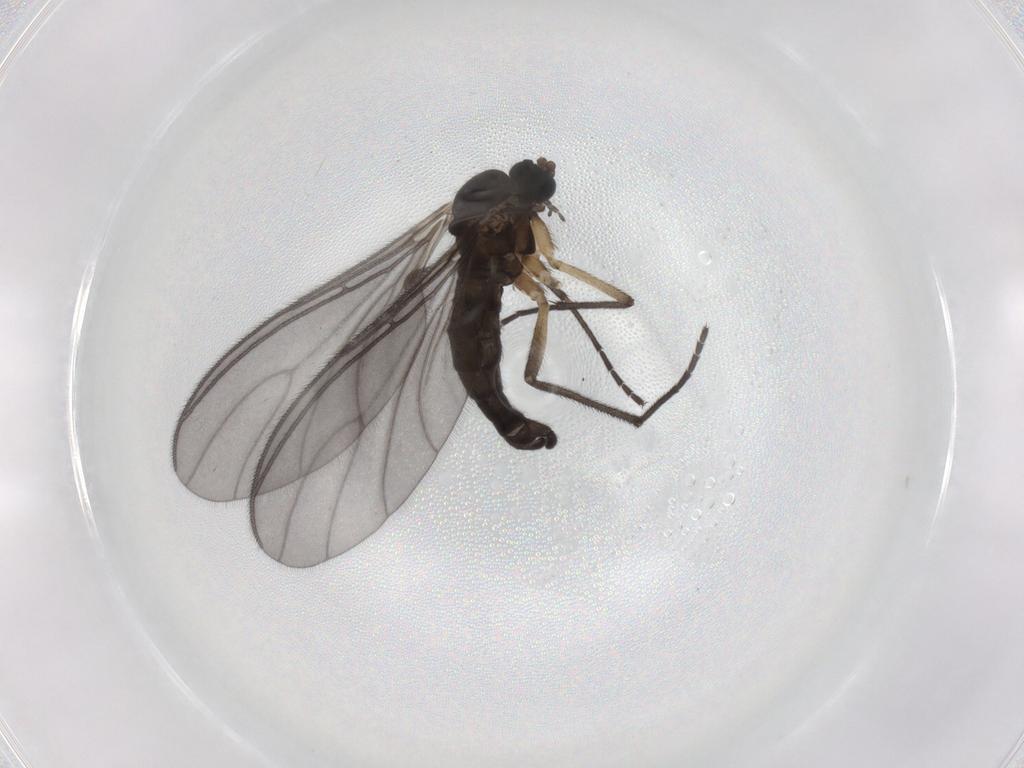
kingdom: Animalia
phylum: Arthropoda
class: Insecta
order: Diptera
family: Sciaridae
